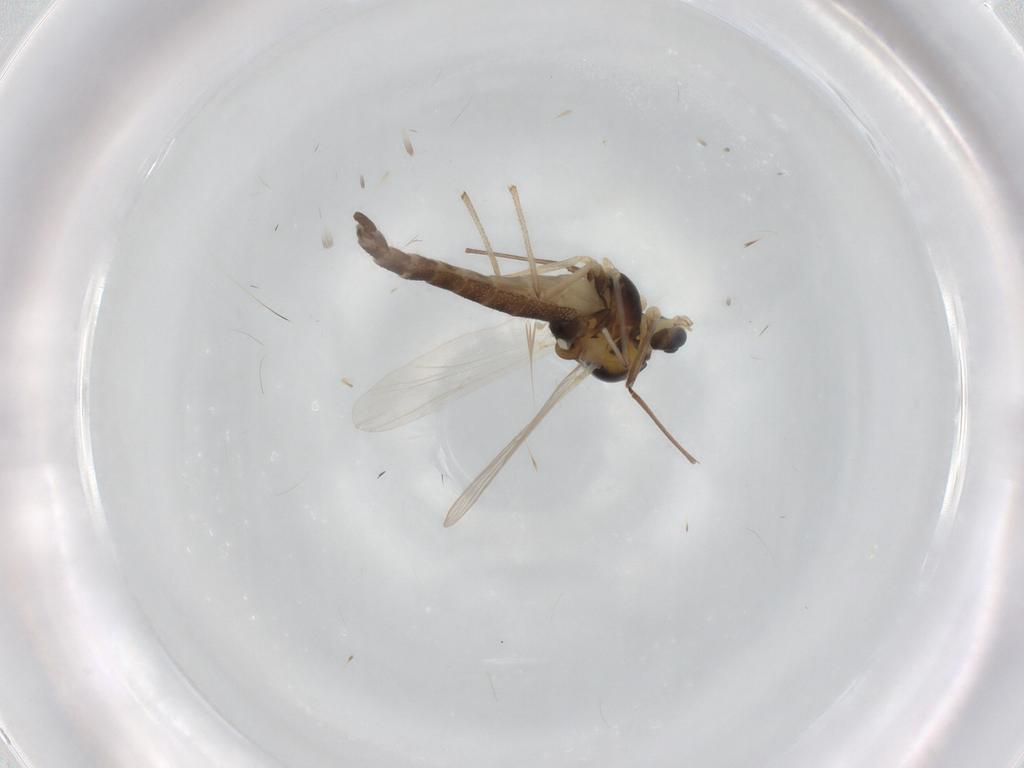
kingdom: Animalia
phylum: Arthropoda
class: Insecta
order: Diptera
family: Chironomidae
